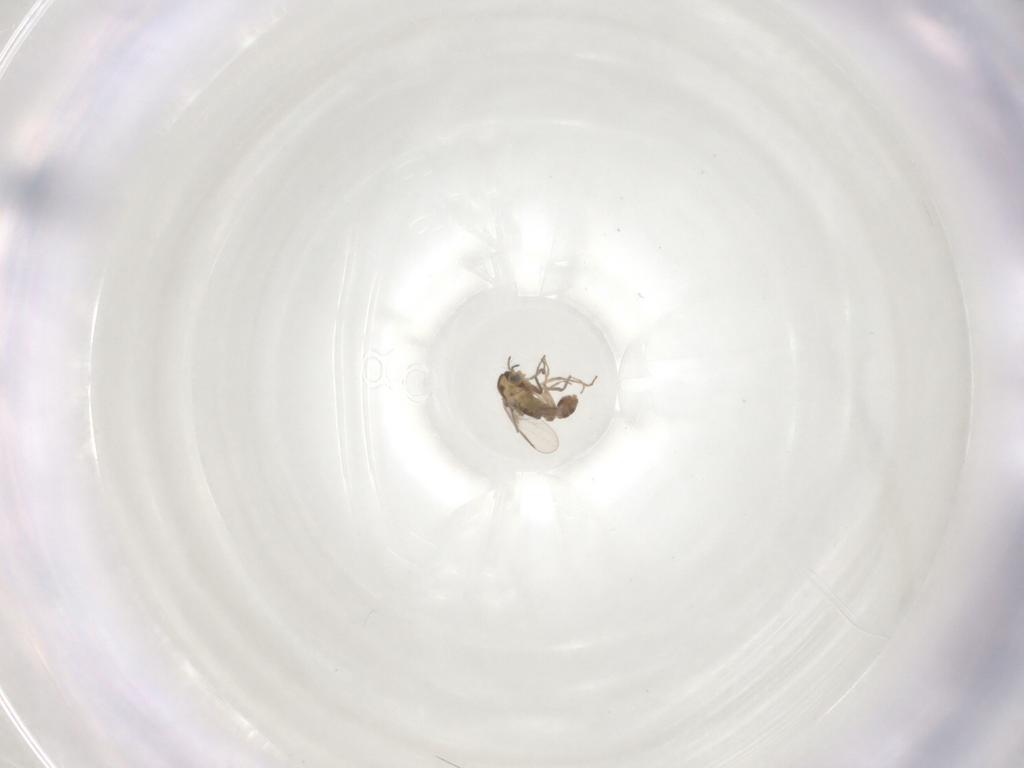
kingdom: Animalia
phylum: Arthropoda
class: Insecta
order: Diptera
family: Chironomidae
